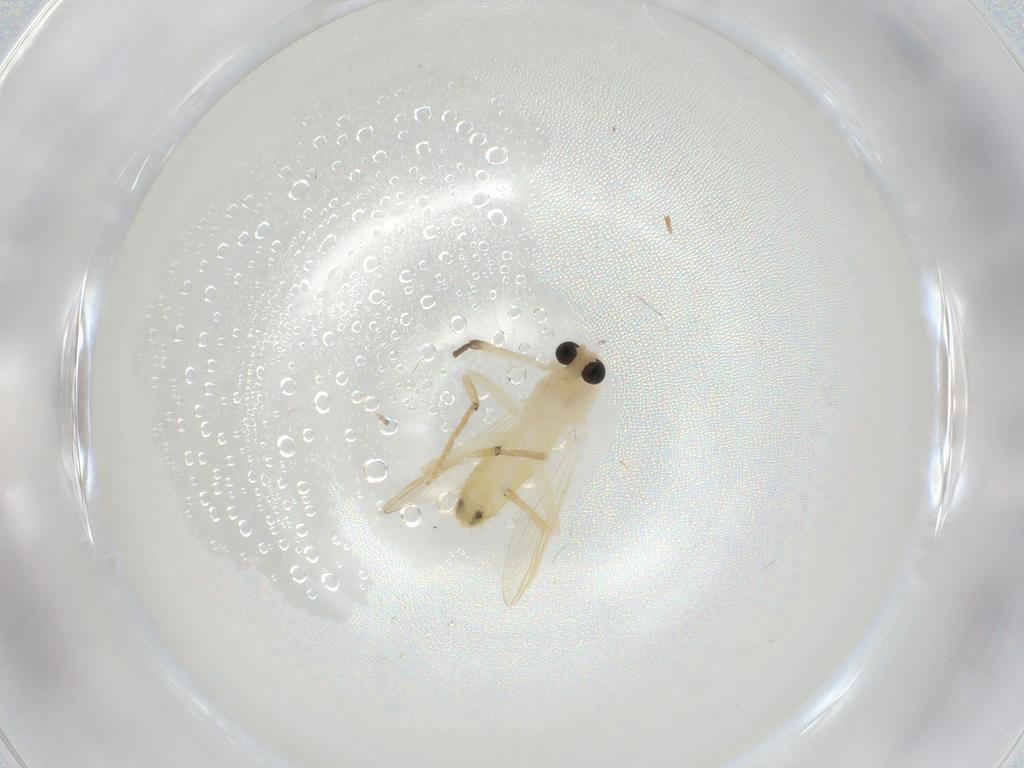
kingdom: Animalia
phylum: Arthropoda
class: Insecta
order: Diptera
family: Chironomidae
